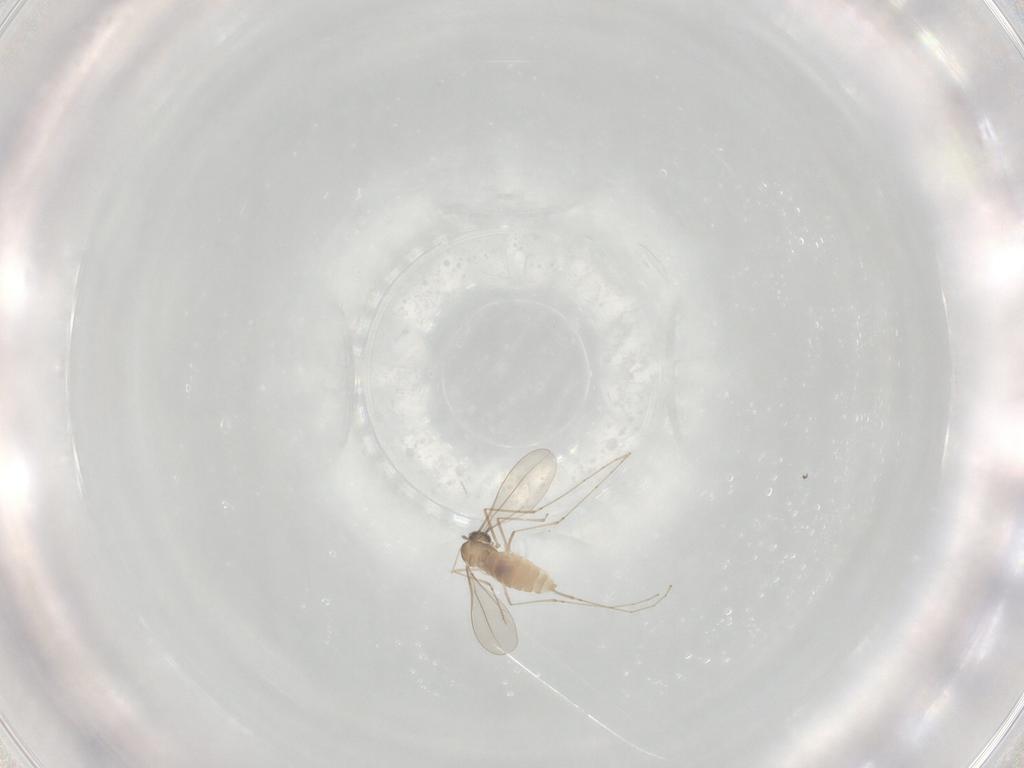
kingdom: Animalia
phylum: Arthropoda
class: Insecta
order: Diptera
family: Cecidomyiidae
